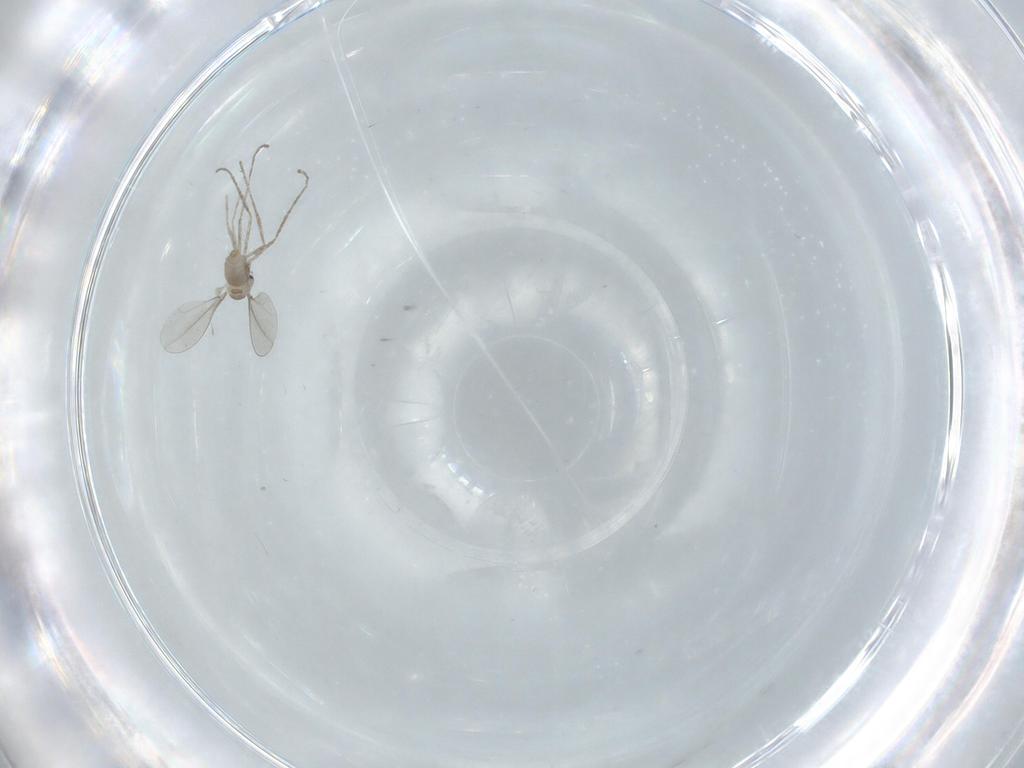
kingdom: Animalia
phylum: Arthropoda
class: Insecta
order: Diptera
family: Cecidomyiidae
